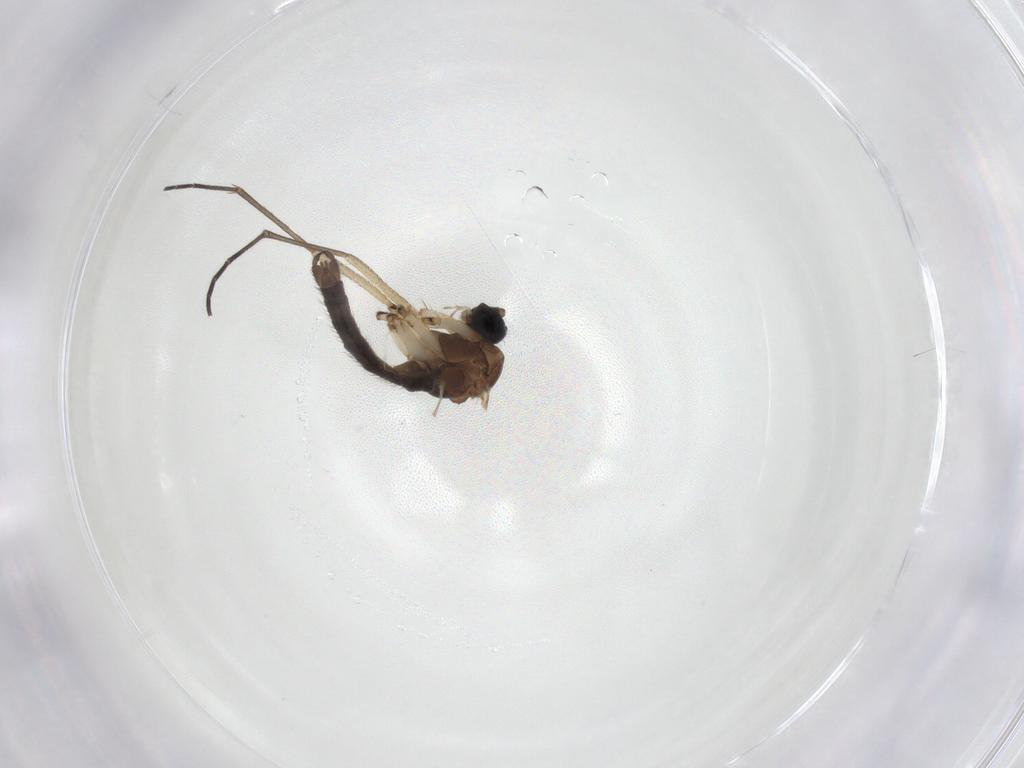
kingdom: Animalia
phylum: Arthropoda
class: Insecta
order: Diptera
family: Sciaridae
